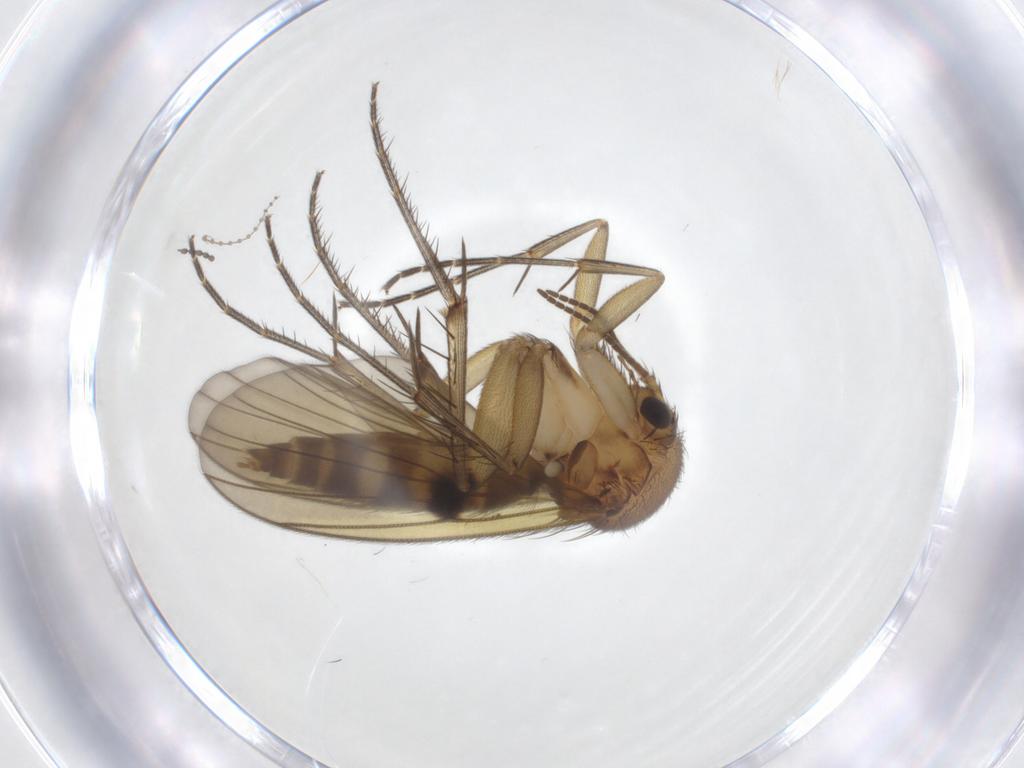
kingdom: Animalia
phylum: Arthropoda
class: Insecta
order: Diptera
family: Mycetophilidae
